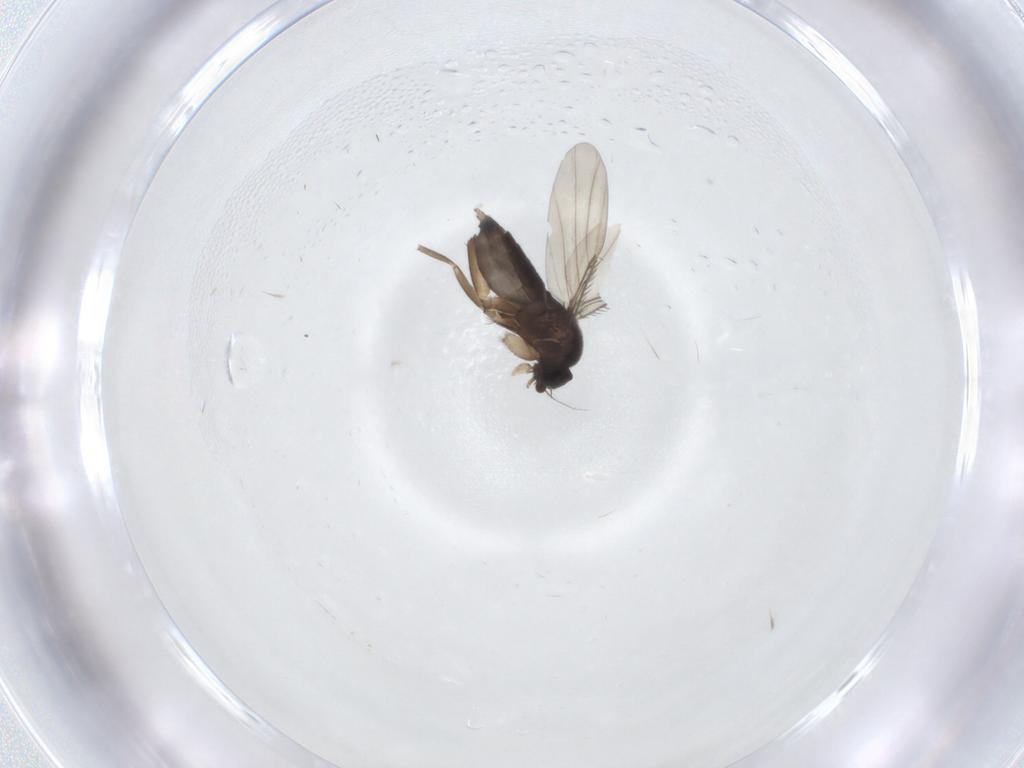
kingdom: Animalia
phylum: Arthropoda
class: Insecta
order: Diptera
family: Phoridae
